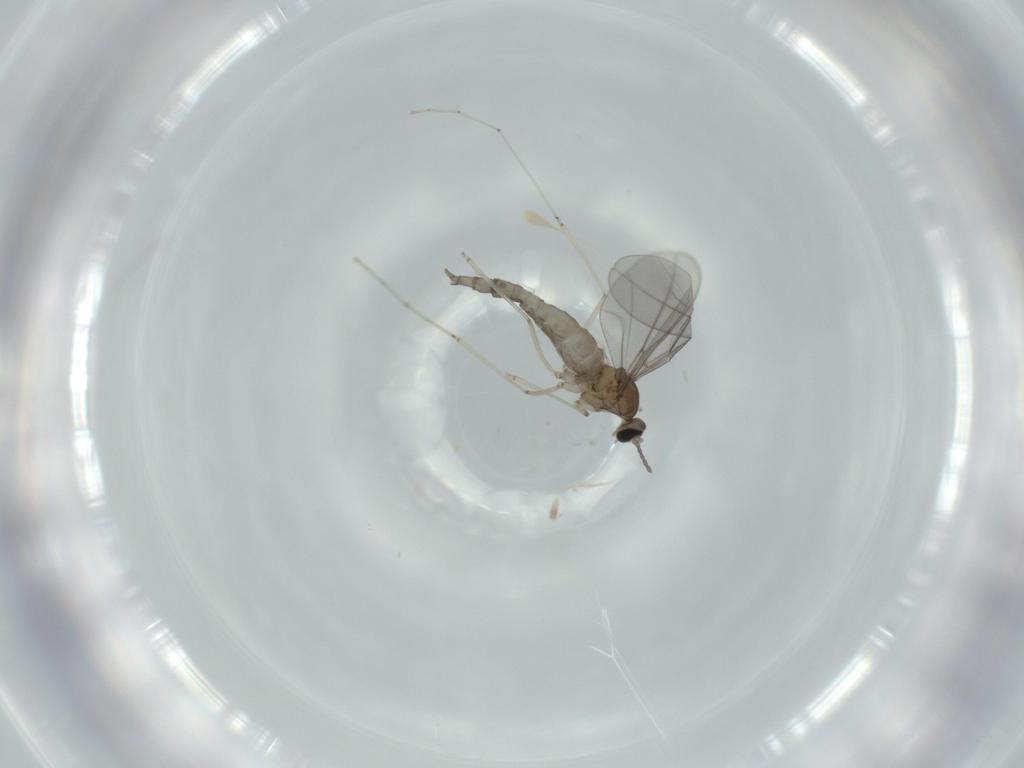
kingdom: Animalia
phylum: Arthropoda
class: Insecta
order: Diptera
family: Cecidomyiidae
